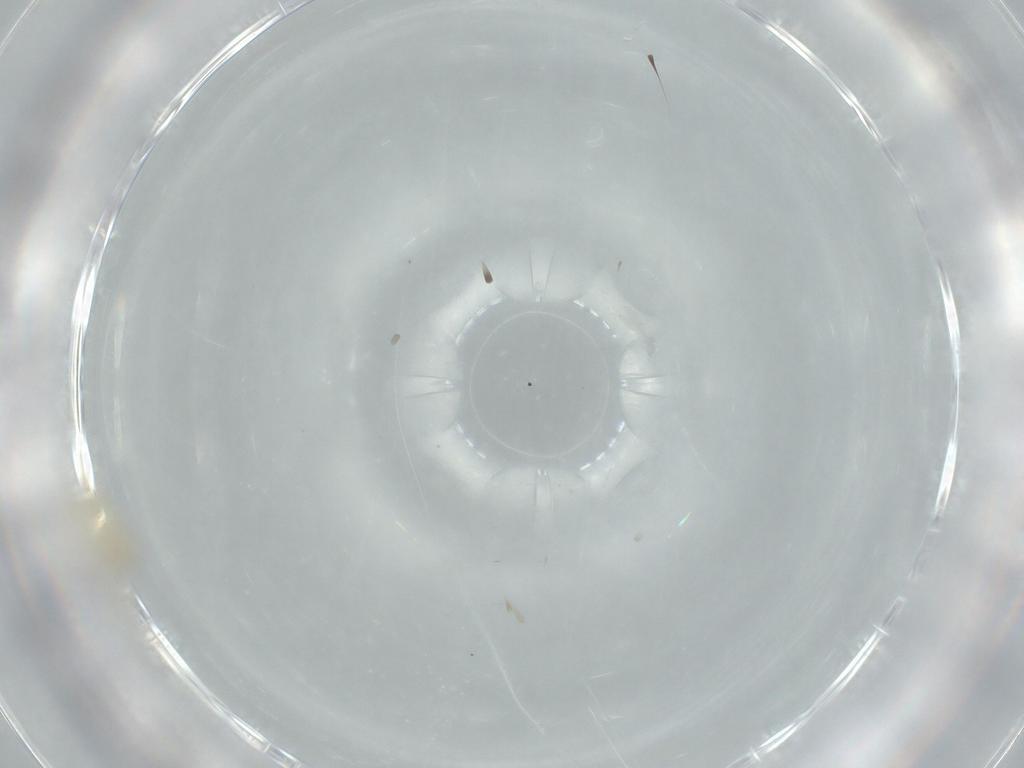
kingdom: Animalia
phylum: Arthropoda
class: Insecta
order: Diptera
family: Cecidomyiidae
